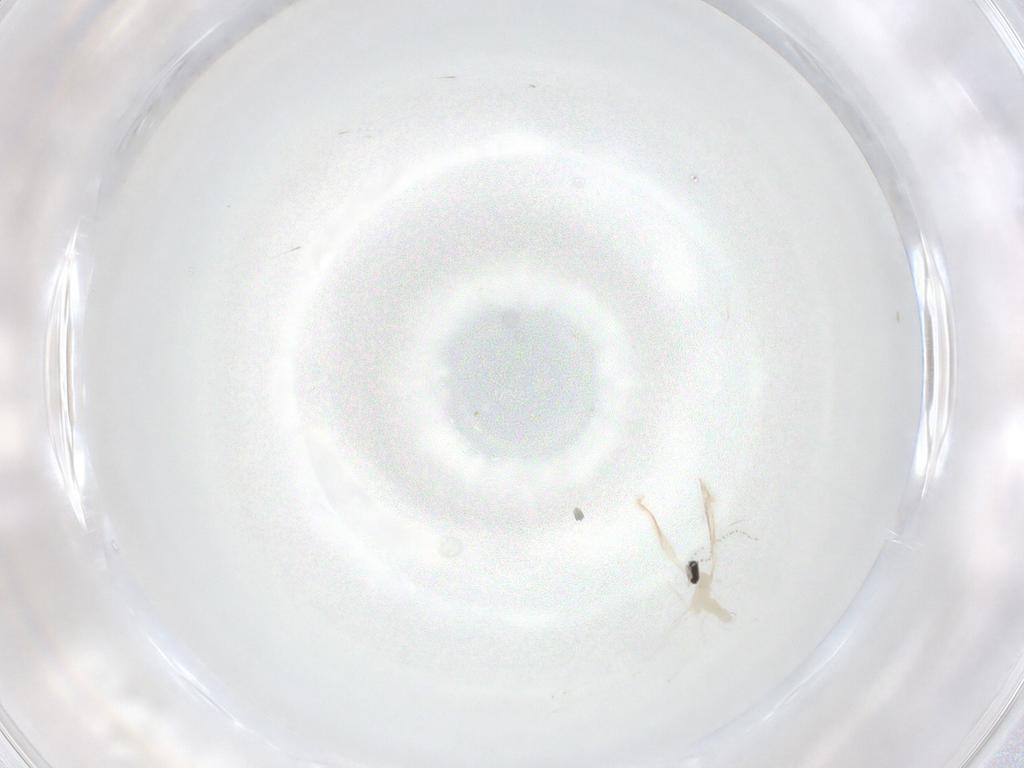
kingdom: Animalia
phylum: Arthropoda
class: Insecta
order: Diptera
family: Cecidomyiidae
